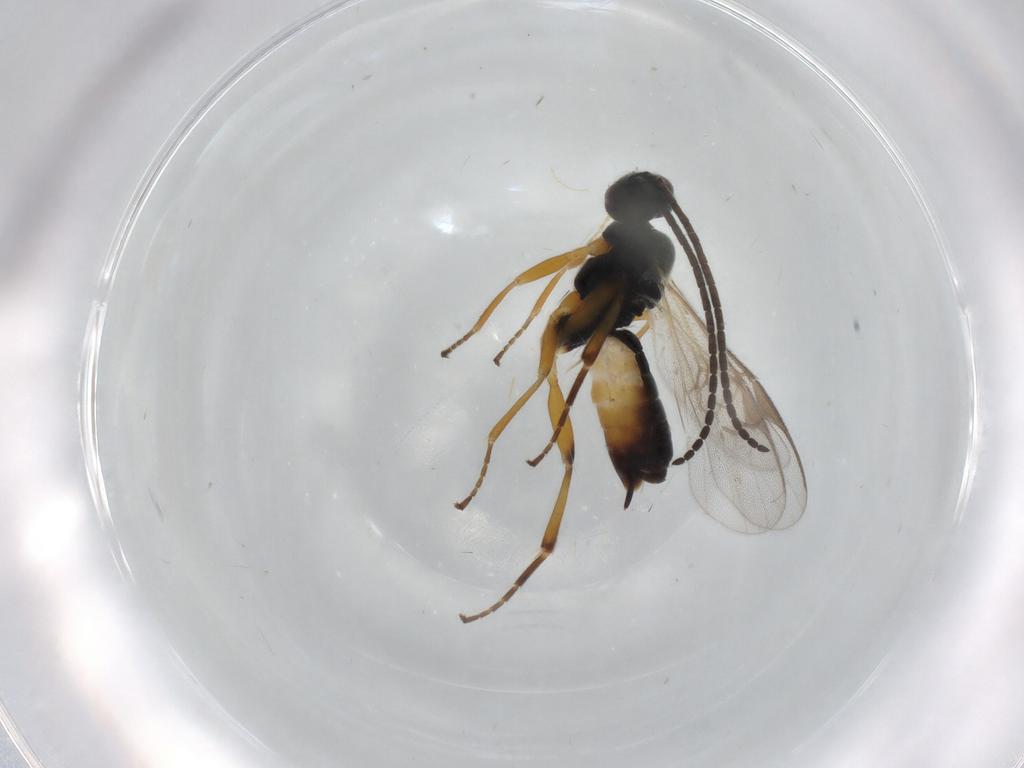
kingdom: Animalia
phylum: Arthropoda
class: Insecta
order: Hymenoptera
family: Braconidae
